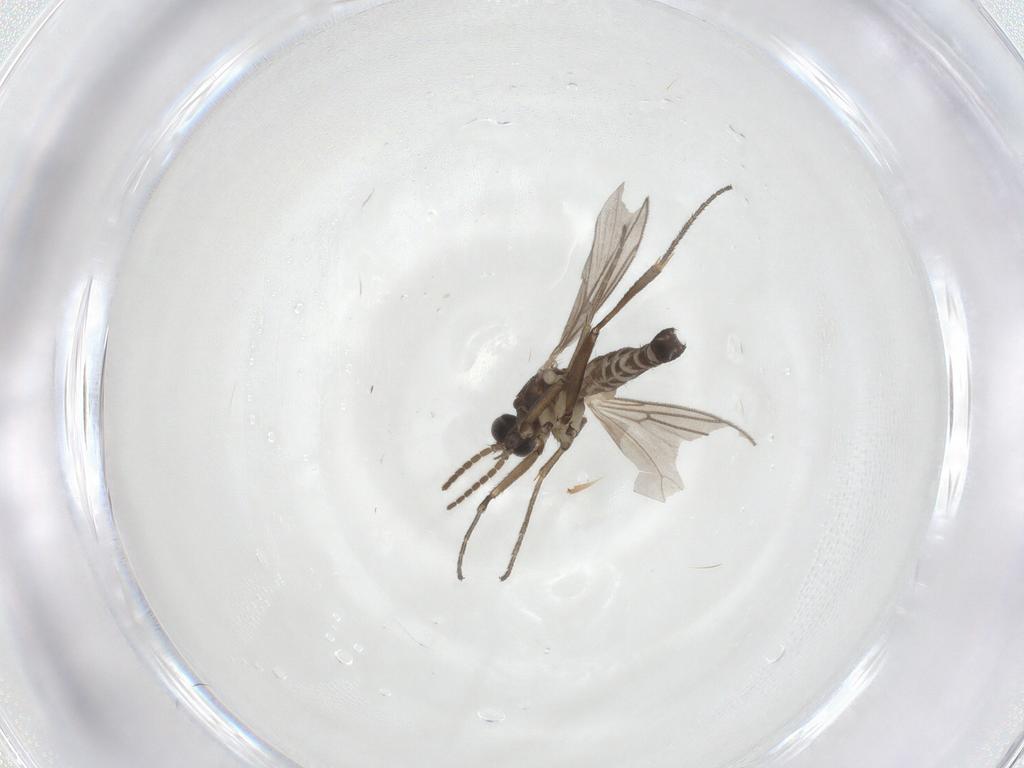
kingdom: Animalia
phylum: Arthropoda
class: Insecta
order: Diptera
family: Mycetophilidae
